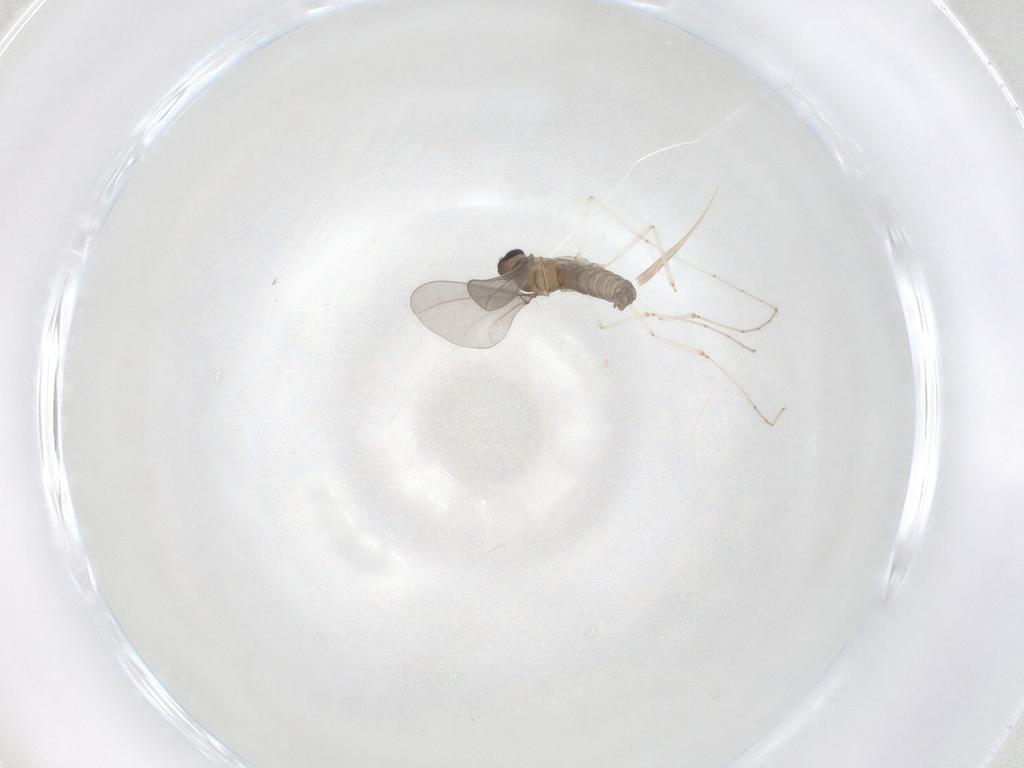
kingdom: Animalia
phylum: Arthropoda
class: Insecta
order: Diptera
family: Cecidomyiidae
